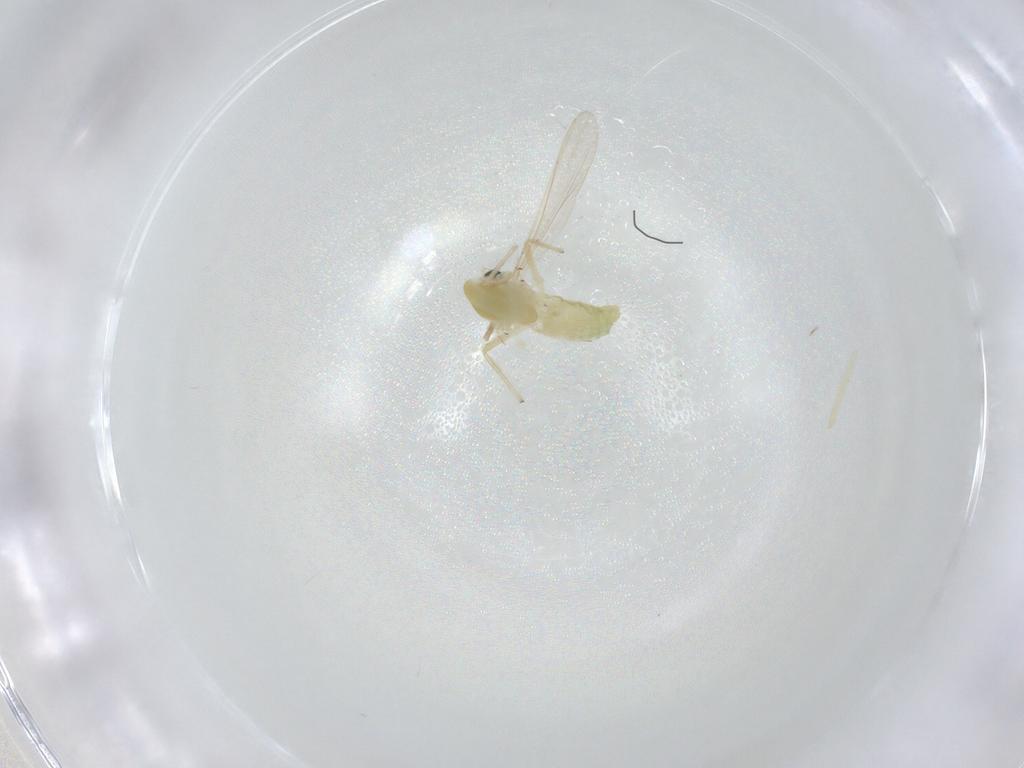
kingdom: Animalia
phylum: Arthropoda
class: Insecta
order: Diptera
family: Chironomidae
